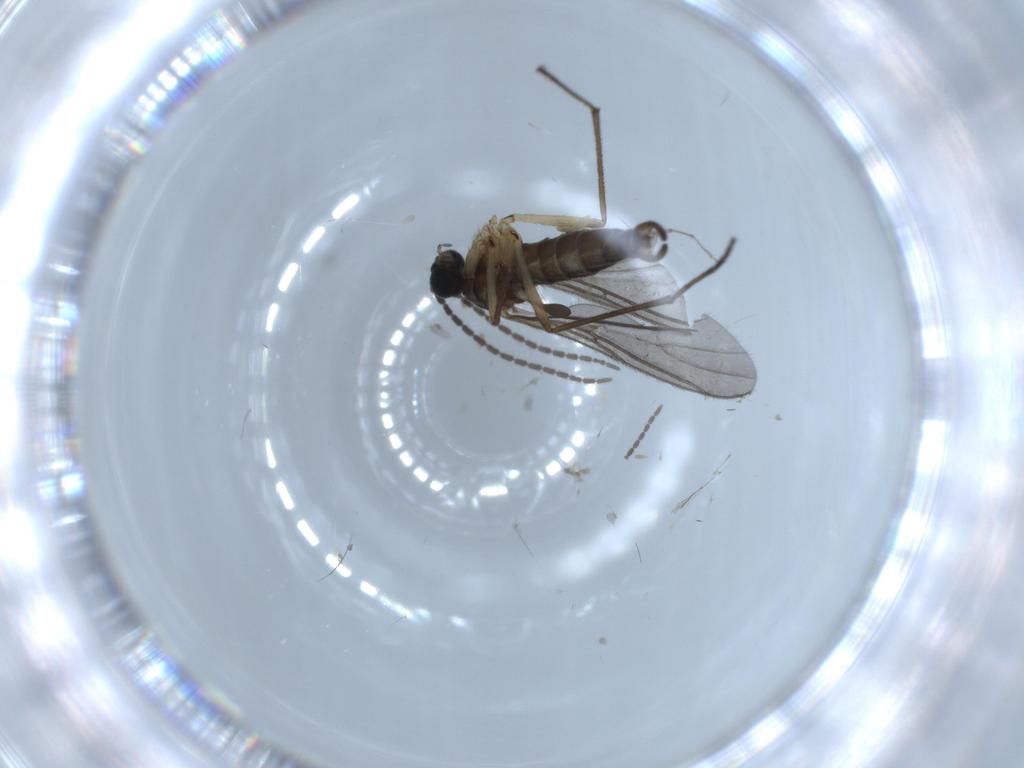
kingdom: Animalia
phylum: Arthropoda
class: Insecta
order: Diptera
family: Sciaridae
